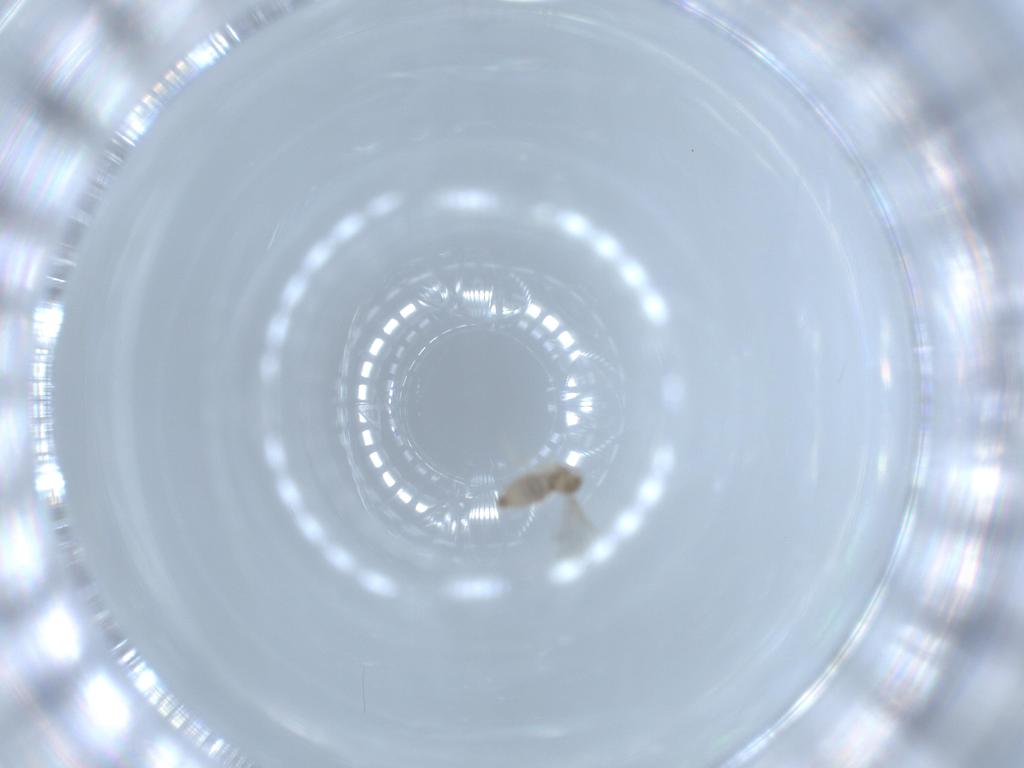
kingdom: Animalia
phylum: Arthropoda
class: Insecta
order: Diptera
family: Cecidomyiidae
